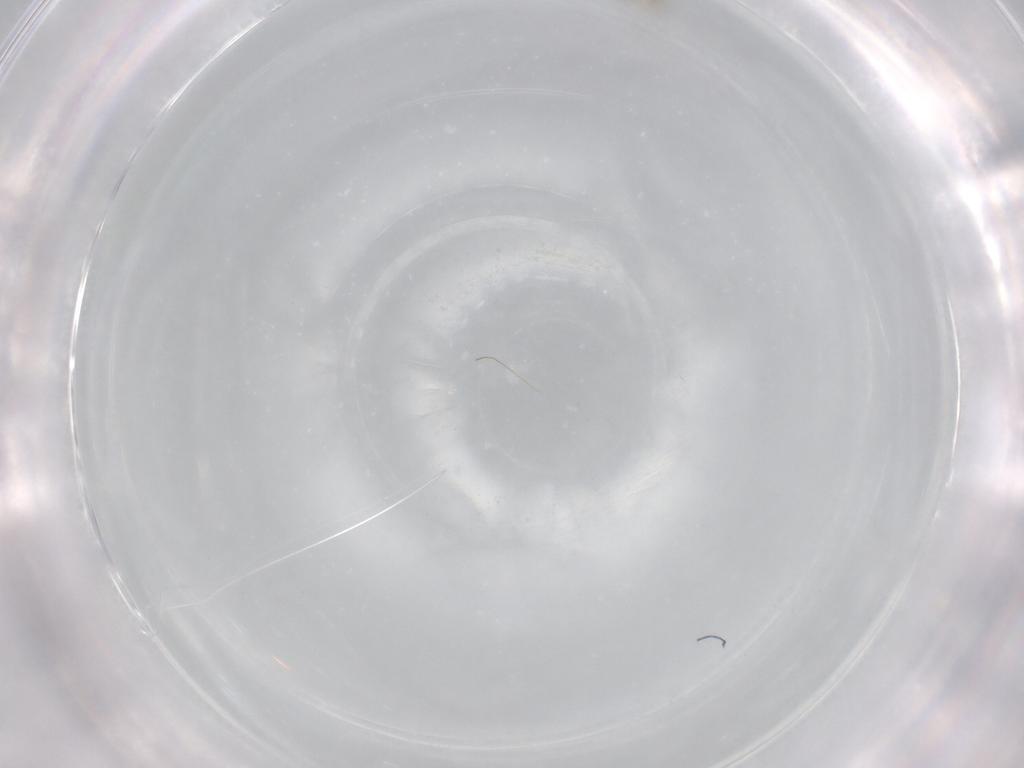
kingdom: Animalia
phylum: Arthropoda
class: Insecta
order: Diptera
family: Cecidomyiidae
